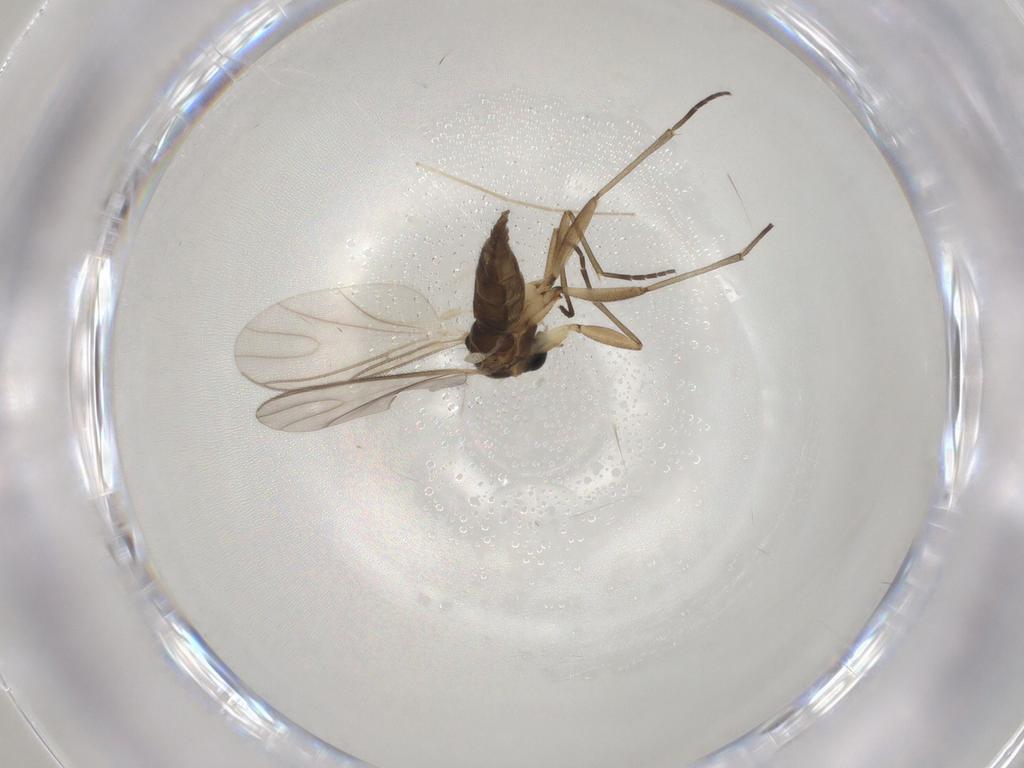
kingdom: Animalia
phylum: Arthropoda
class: Insecta
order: Diptera
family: Chironomidae
